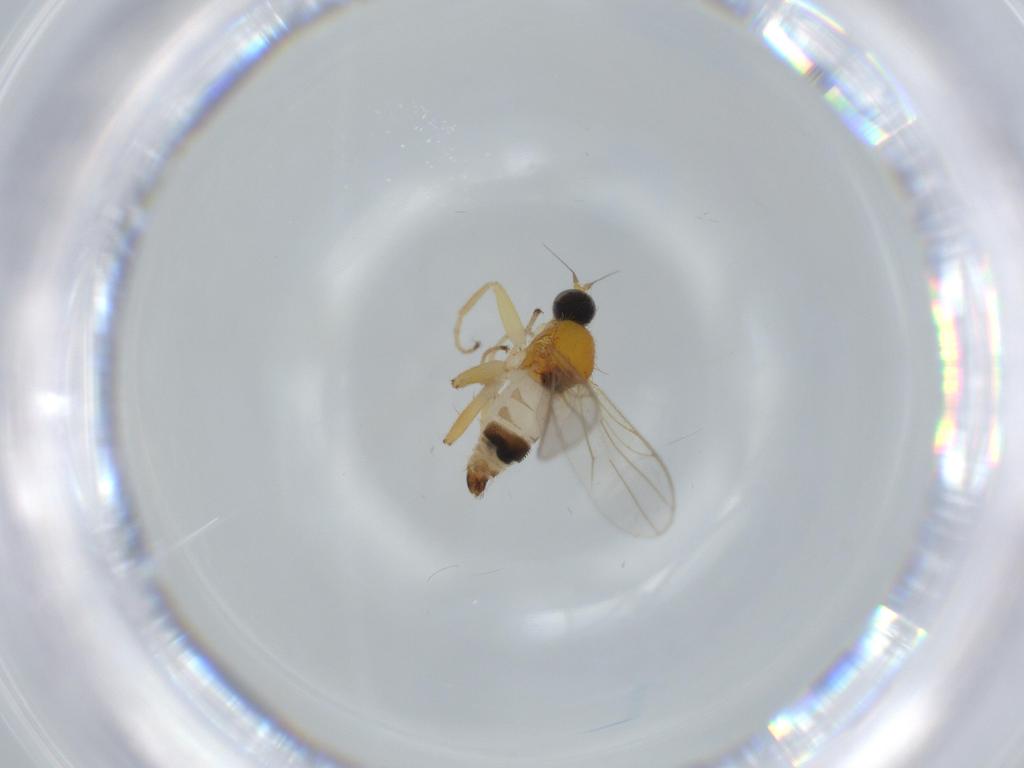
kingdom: Animalia
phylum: Arthropoda
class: Insecta
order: Diptera
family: Hybotidae
